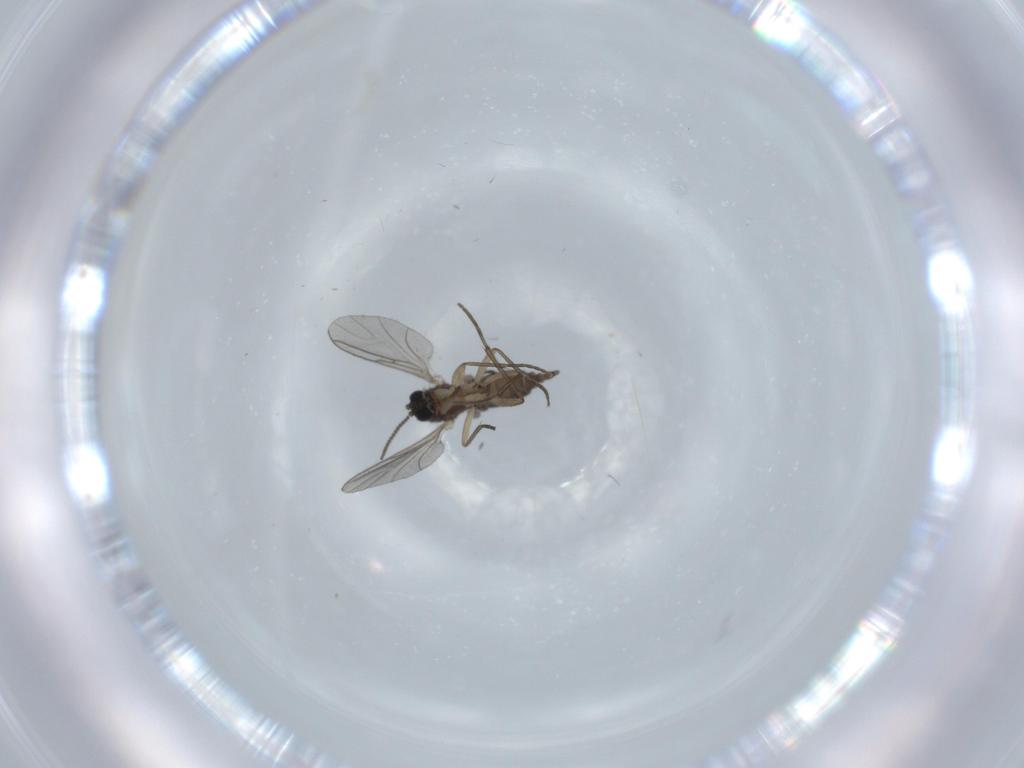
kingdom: Animalia
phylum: Arthropoda
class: Insecta
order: Diptera
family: Sciaridae
